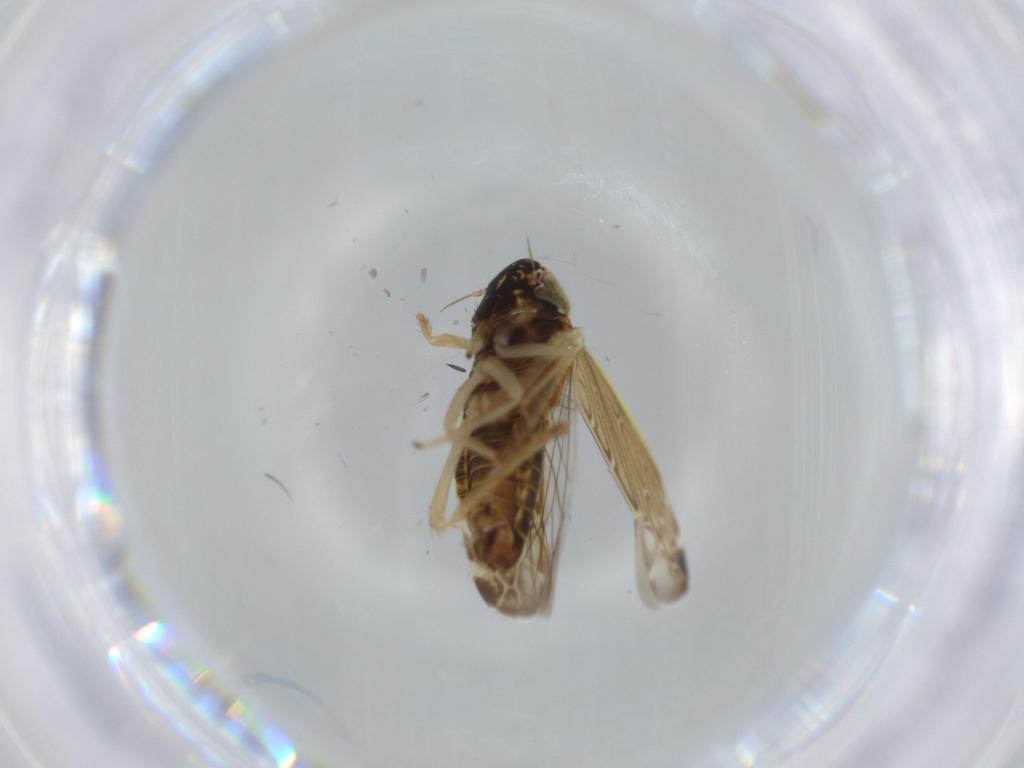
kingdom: Animalia
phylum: Arthropoda
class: Insecta
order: Hemiptera
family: Cicadellidae
